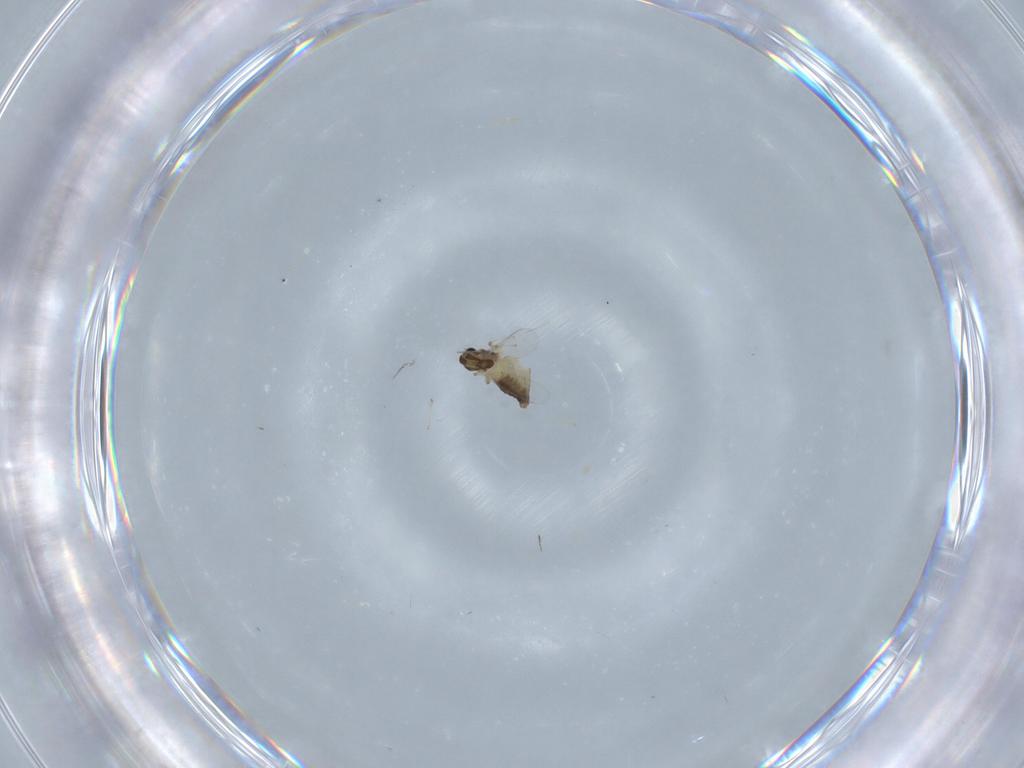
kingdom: Animalia
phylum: Arthropoda
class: Insecta
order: Diptera
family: Chironomidae
